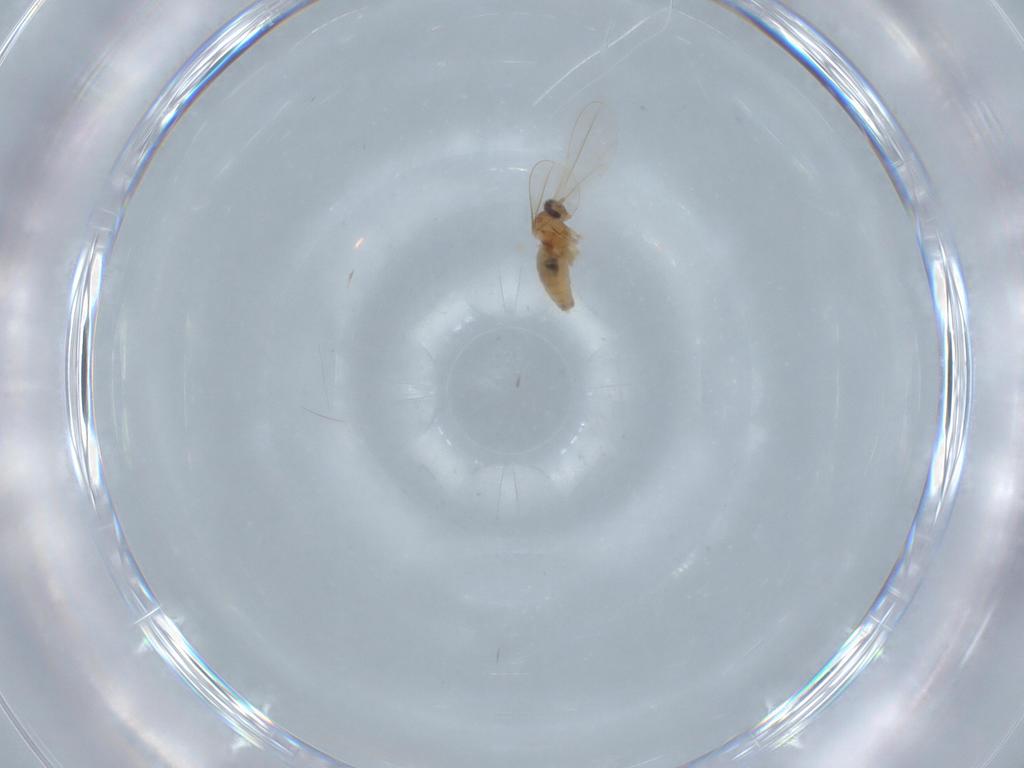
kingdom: Animalia
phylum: Arthropoda
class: Insecta
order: Diptera
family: Cecidomyiidae
